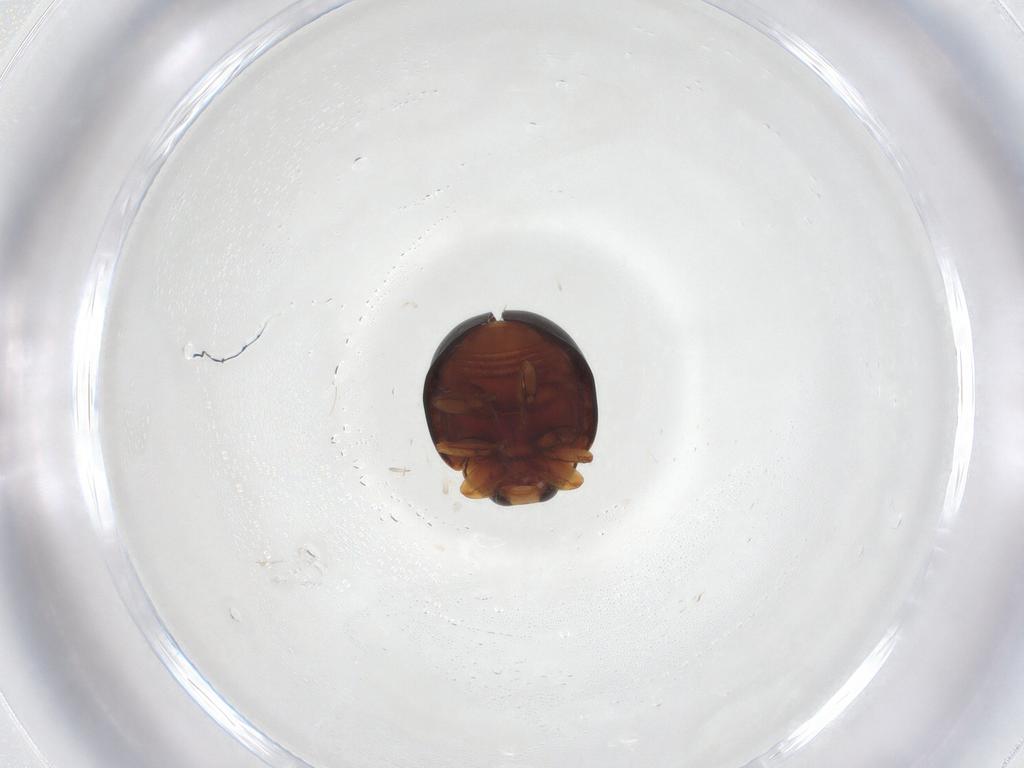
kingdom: Animalia
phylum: Arthropoda
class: Insecta
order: Coleoptera
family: Coccinellidae
